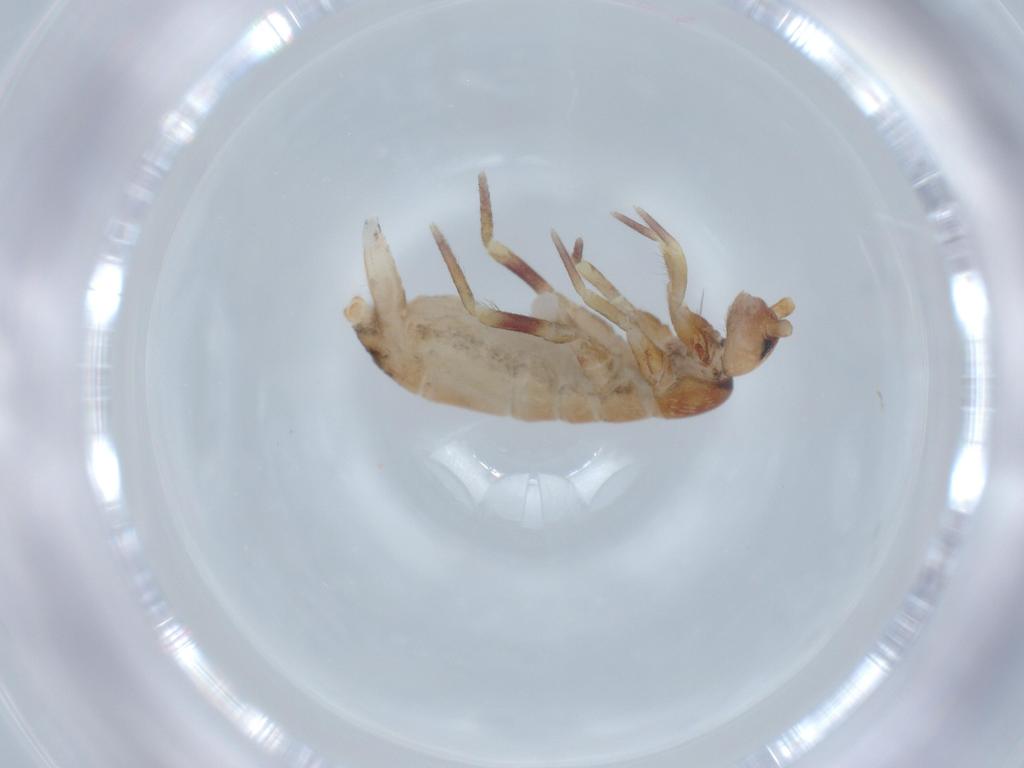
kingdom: Animalia
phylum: Arthropoda
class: Collembola
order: Entomobryomorpha
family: Tomoceridae
